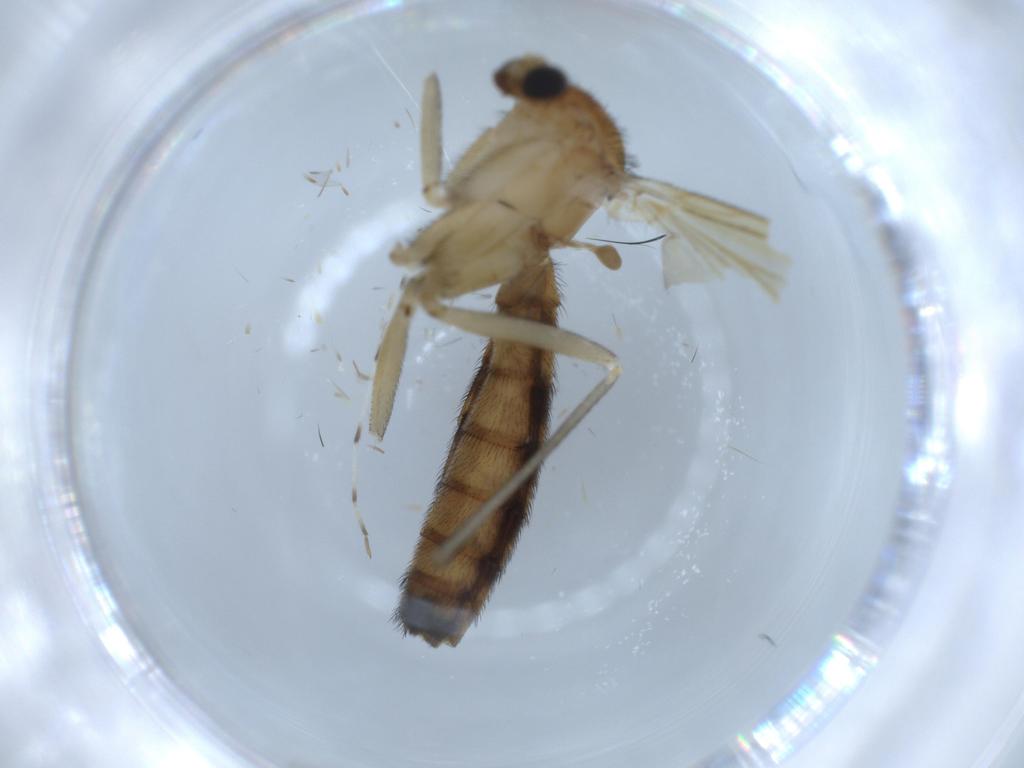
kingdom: Animalia
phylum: Arthropoda
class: Insecta
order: Diptera
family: Keroplatidae
